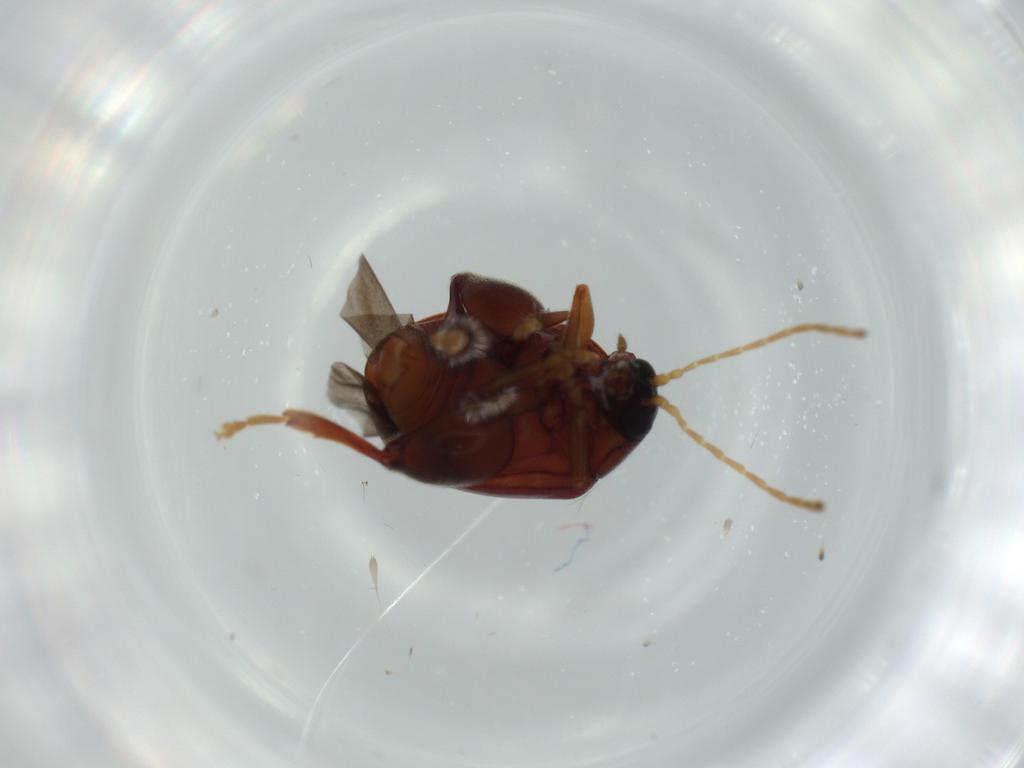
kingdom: Animalia
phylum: Arthropoda
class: Insecta
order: Coleoptera
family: Chrysomelidae
